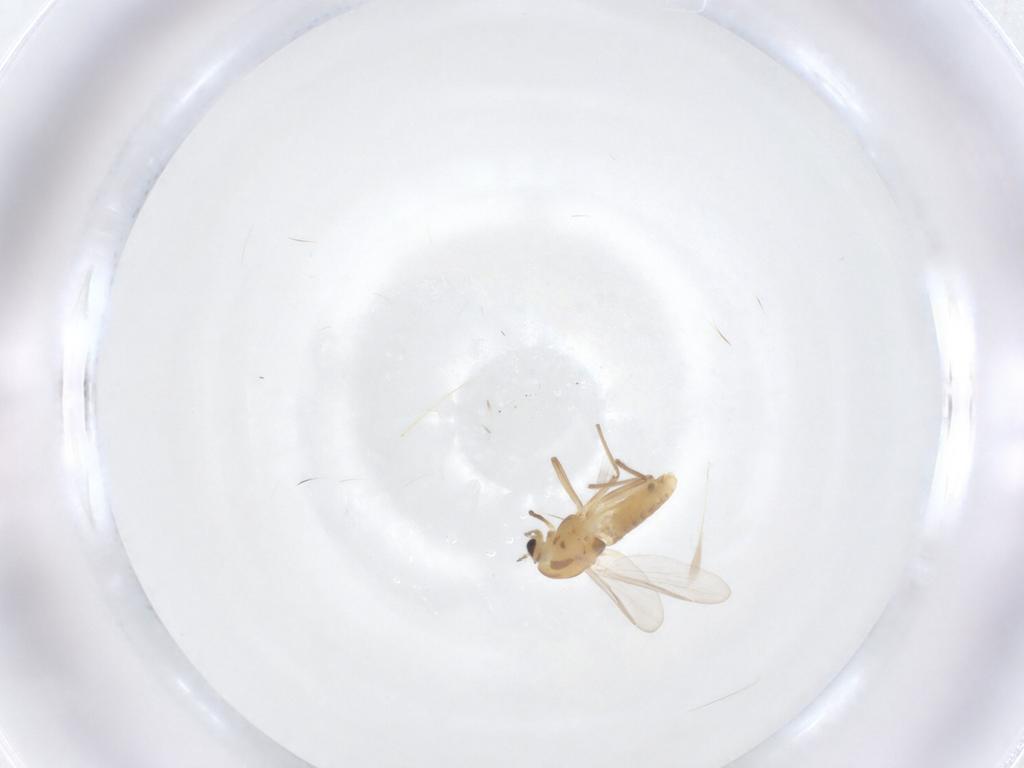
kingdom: Animalia
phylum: Arthropoda
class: Insecta
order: Diptera
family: Chironomidae
